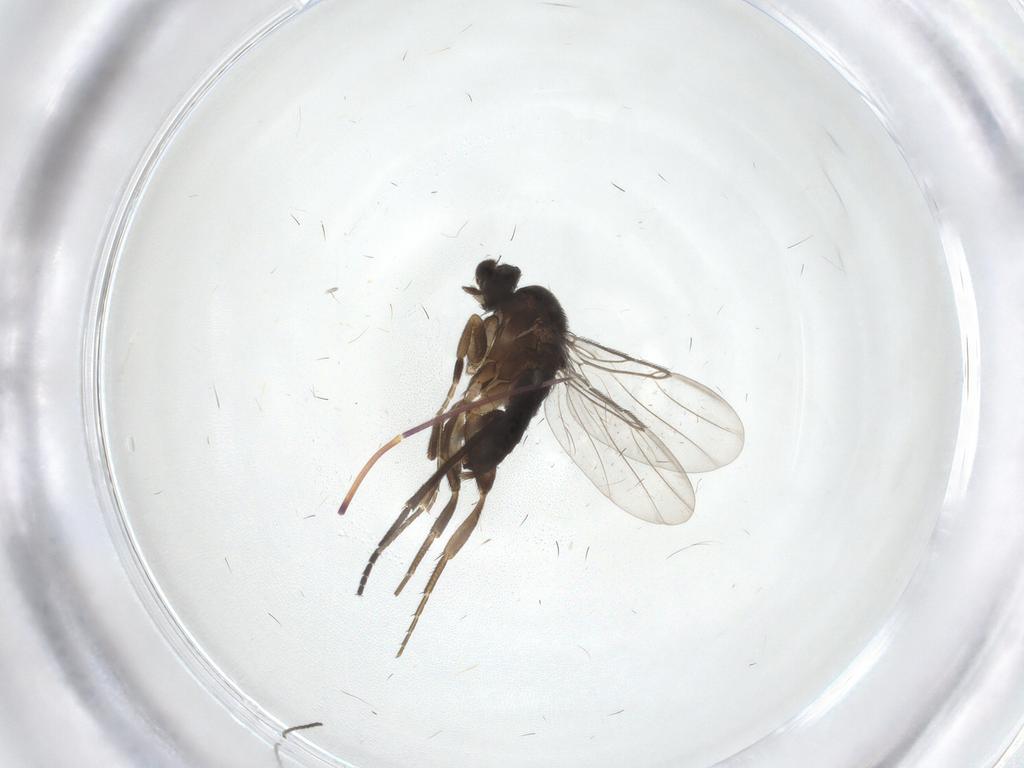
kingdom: Animalia
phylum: Arthropoda
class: Insecta
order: Diptera
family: Phoridae
